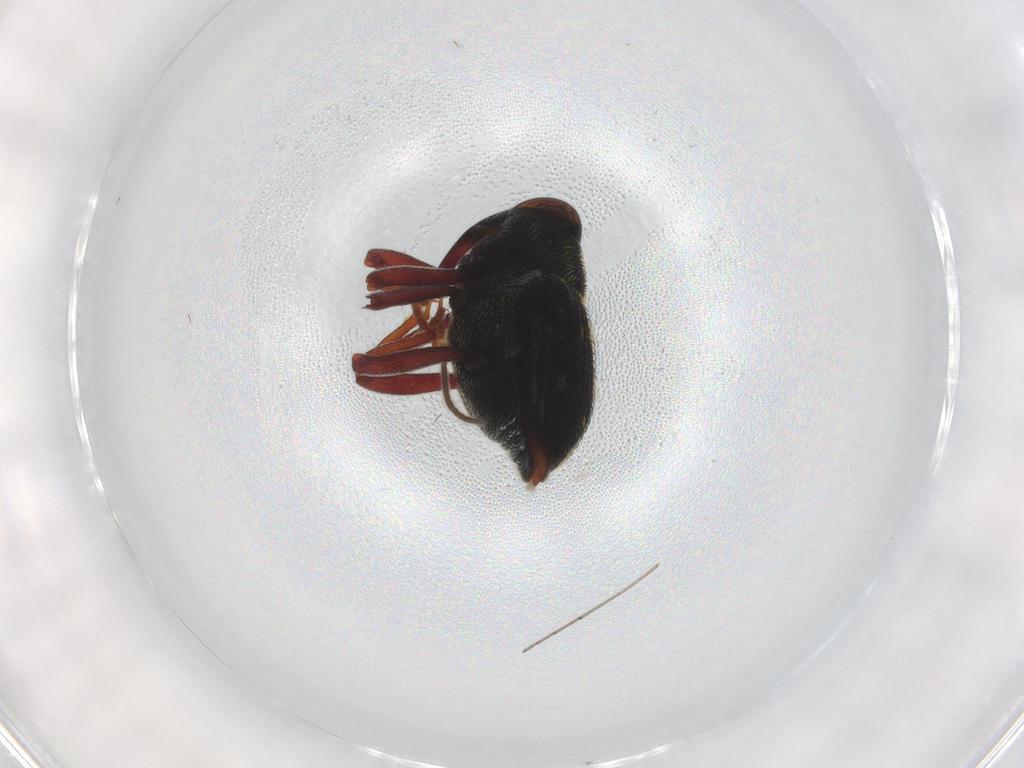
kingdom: Animalia
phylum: Arthropoda
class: Insecta
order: Coleoptera
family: Curculionidae
